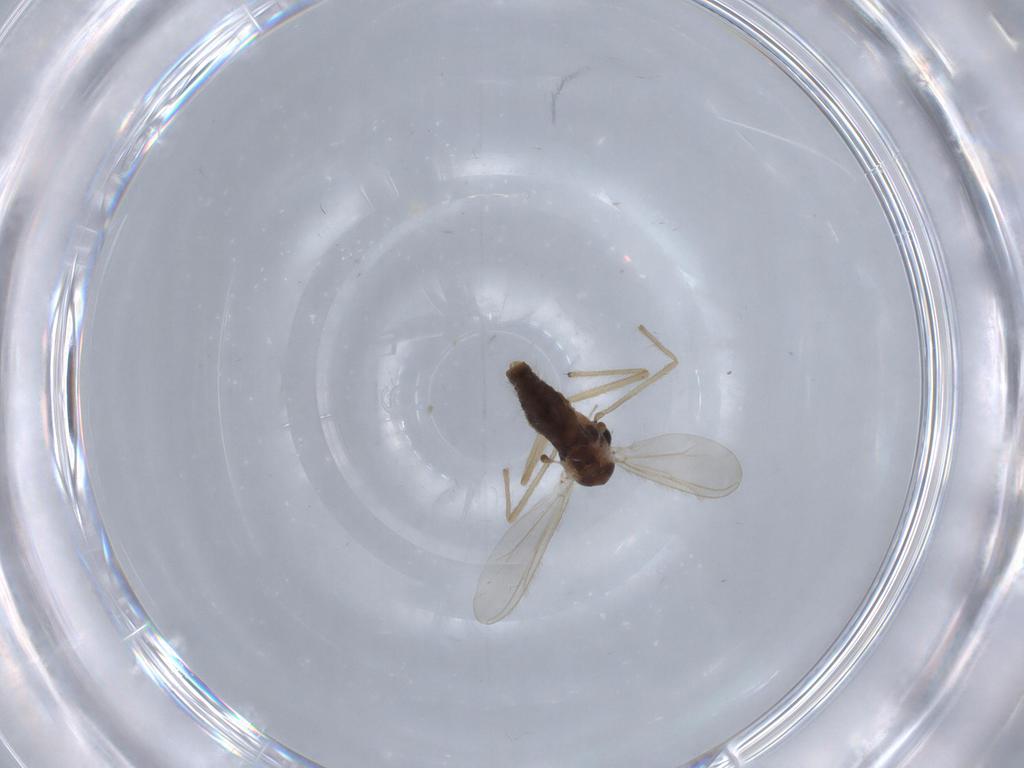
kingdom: Animalia
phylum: Arthropoda
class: Insecta
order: Diptera
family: Chironomidae
